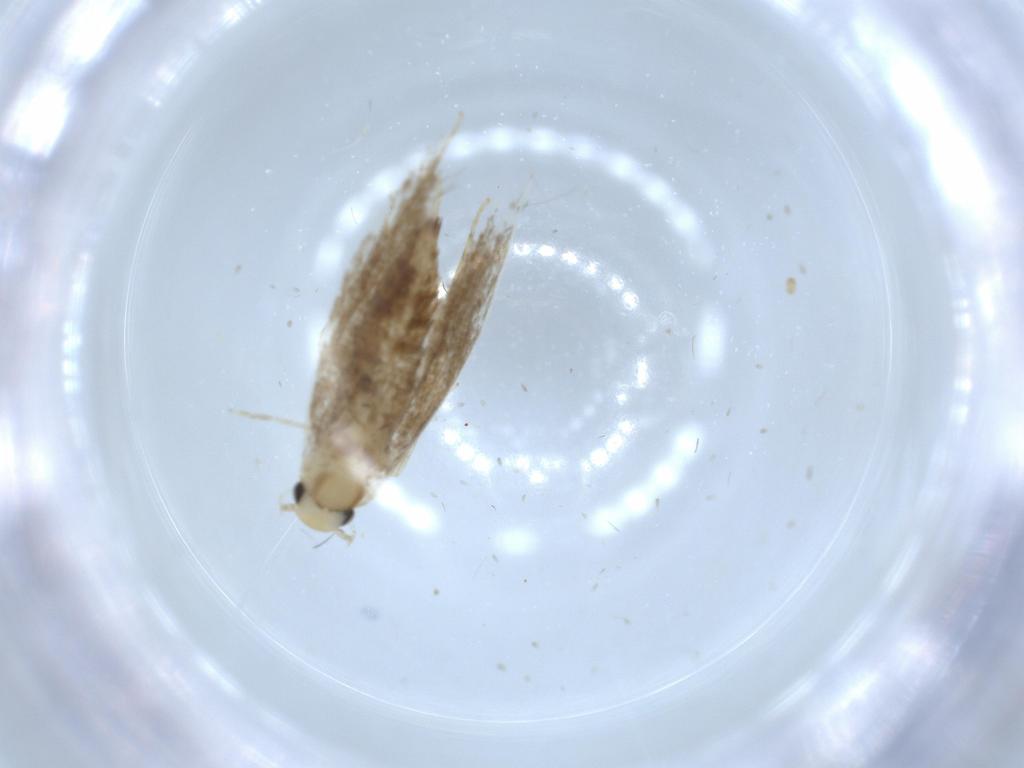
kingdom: Animalia
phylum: Arthropoda
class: Insecta
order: Lepidoptera
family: Tineidae
